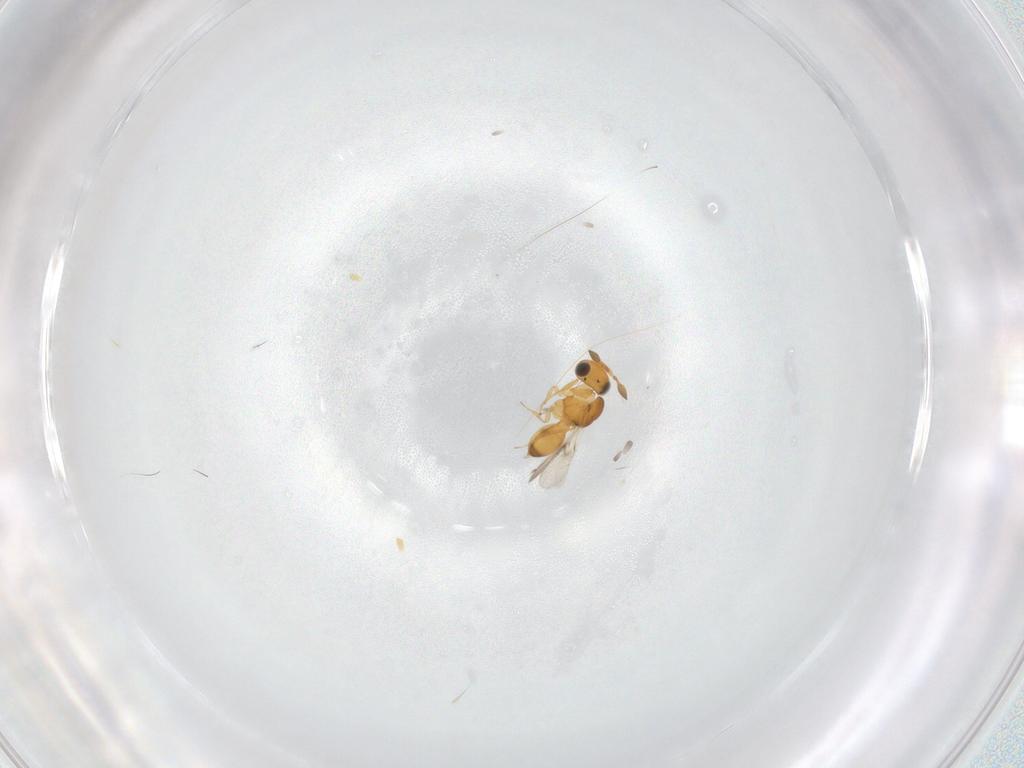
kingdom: Animalia
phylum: Arthropoda
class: Insecta
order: Hymenoptera
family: Scelionidae
